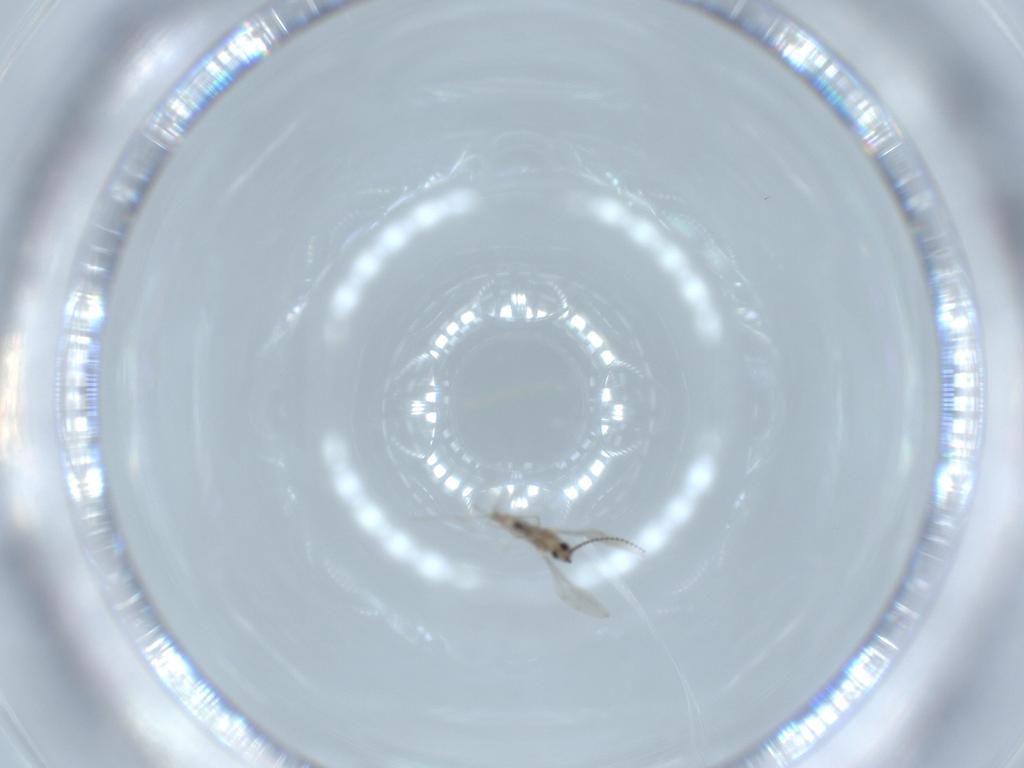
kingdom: Animalia
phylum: Arthropoda
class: Insecta
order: Diptera
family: Cecidomyiidae
